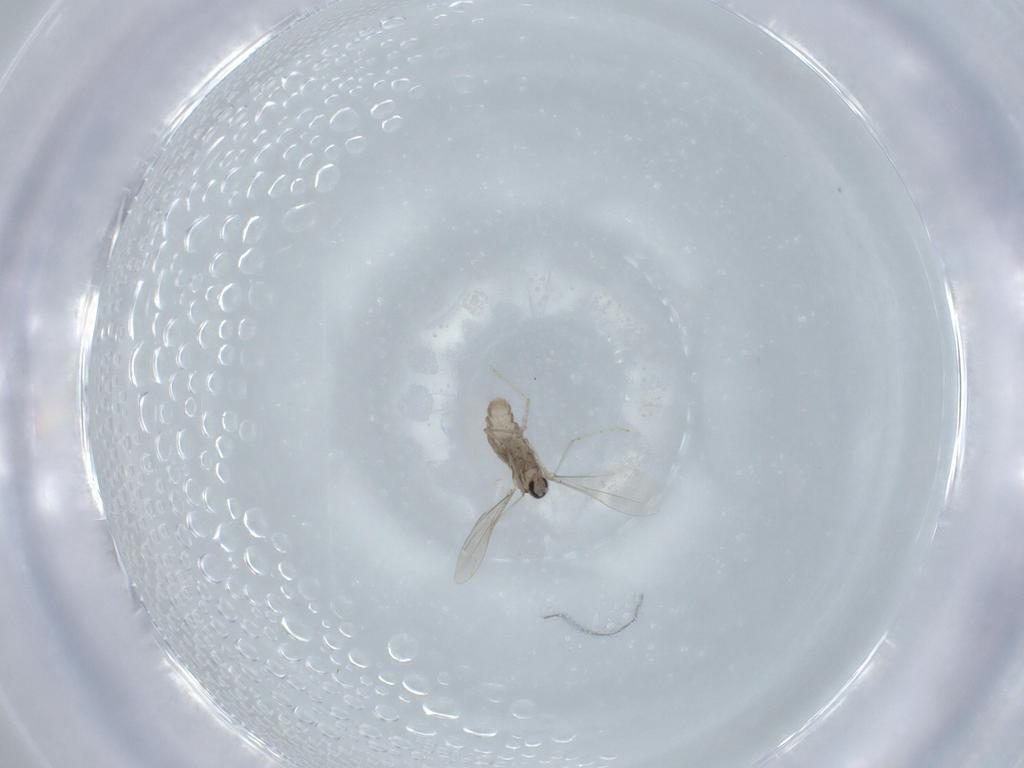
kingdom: Animalia
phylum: Arthropoda
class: Insecta
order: Diptera
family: Cecidomyiidae
